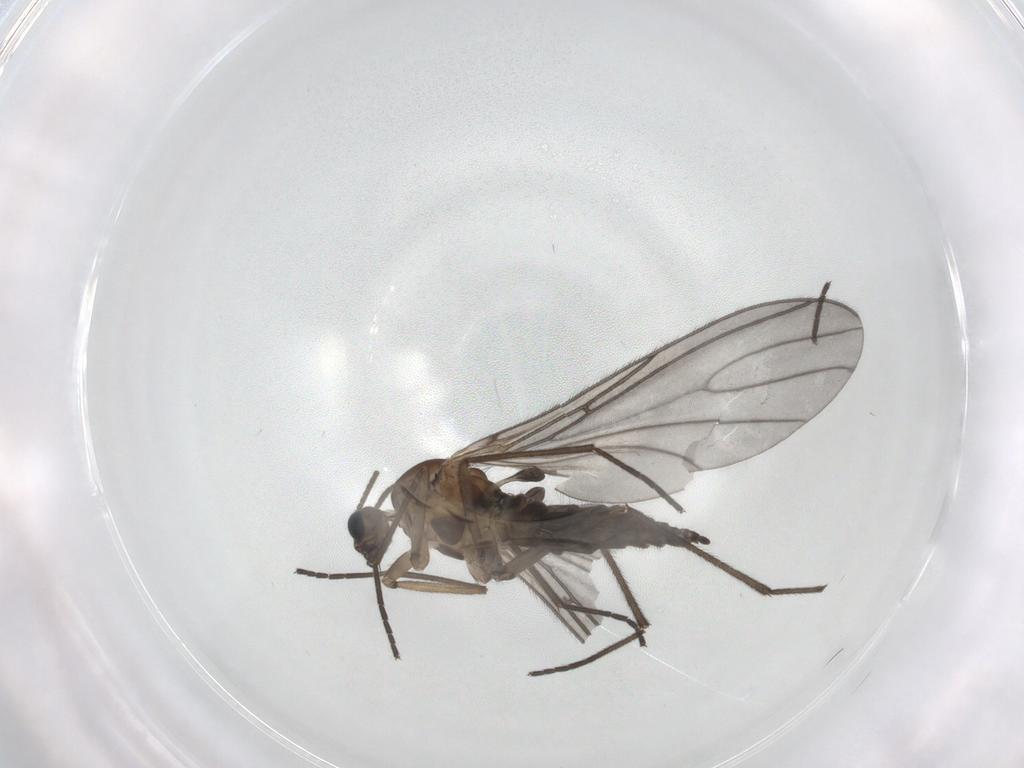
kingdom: Animalia
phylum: Arthropoda
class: Insecta
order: Diptera
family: Sciaridae
